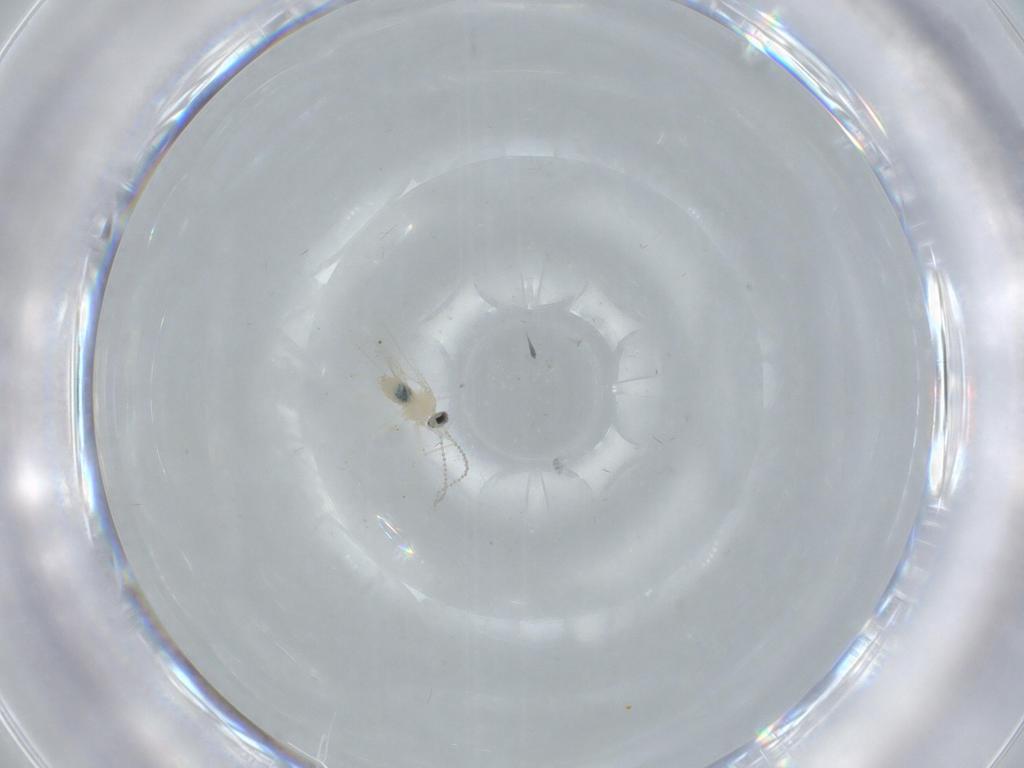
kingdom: Animalia
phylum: Arthropoda
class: Insecta
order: Diptera
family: Cecidomyiidae
